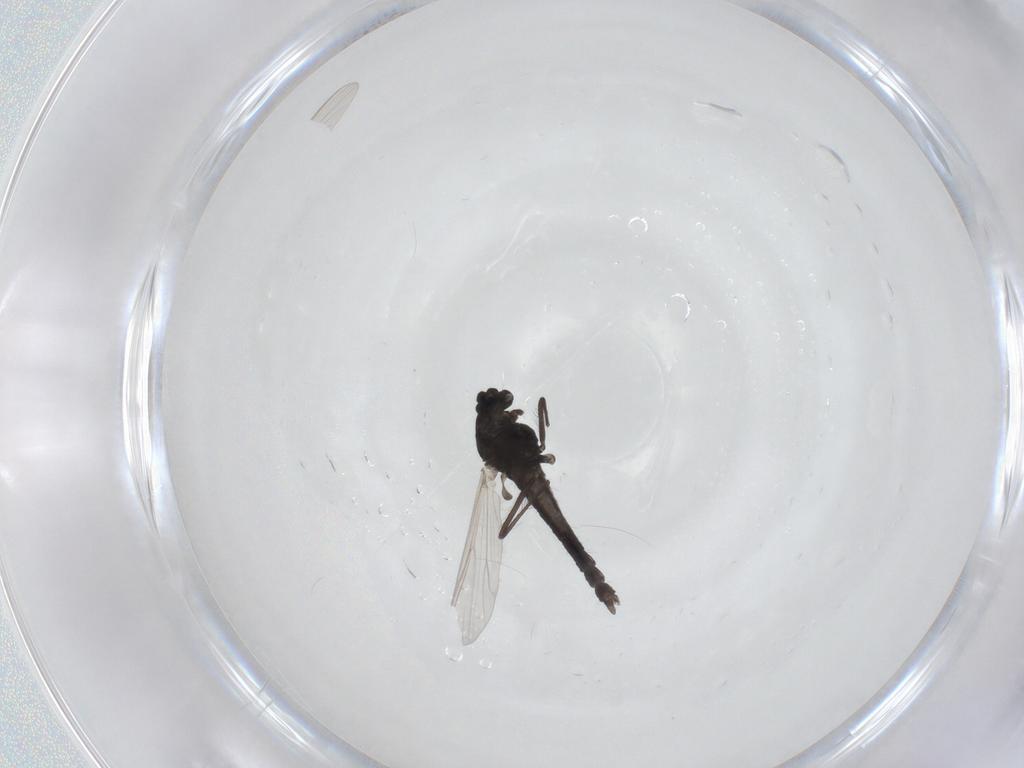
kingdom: Animalia
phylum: Arthropoda
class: Insecta
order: Diptera
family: Chironomidae
